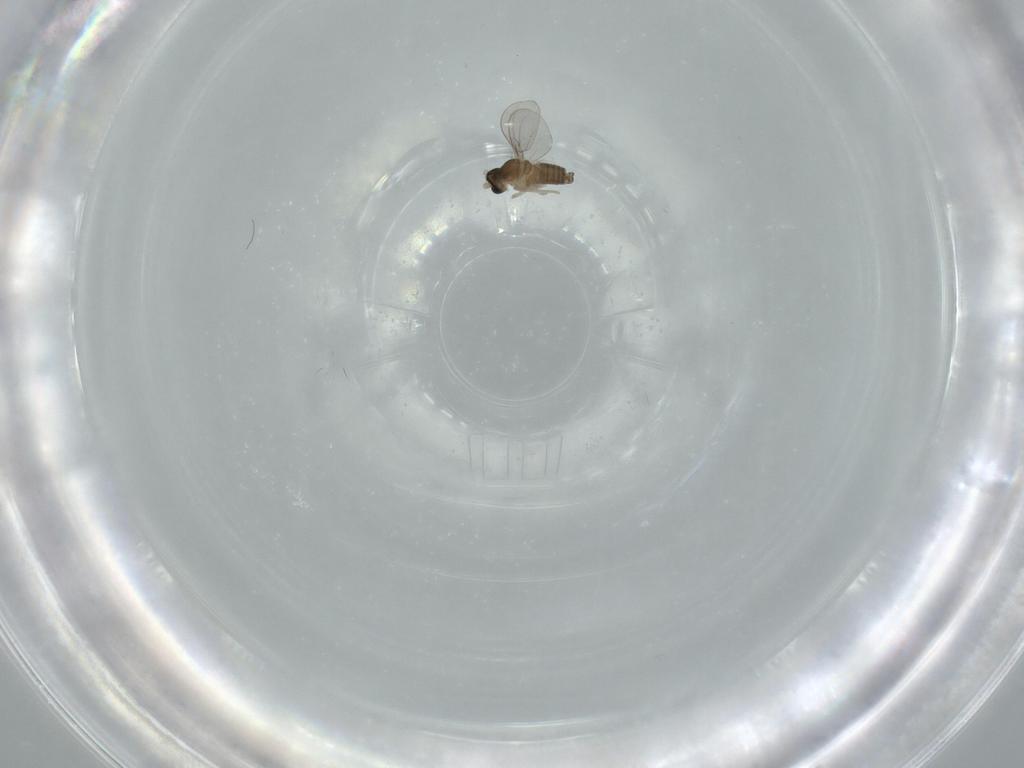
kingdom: Animalia
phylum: Arthropoda
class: Insecta
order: Diptera
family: Cecidomyiidae
